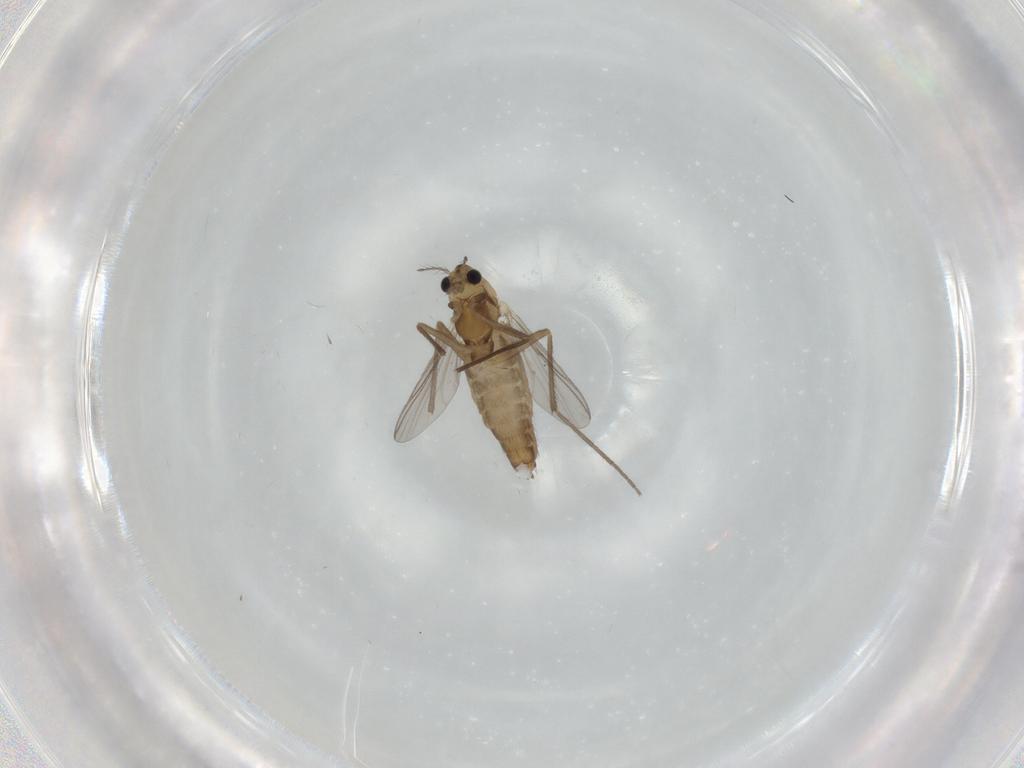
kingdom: Animalia
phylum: Arthropoda
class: Insecta
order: Diptera
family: Chironomidae
